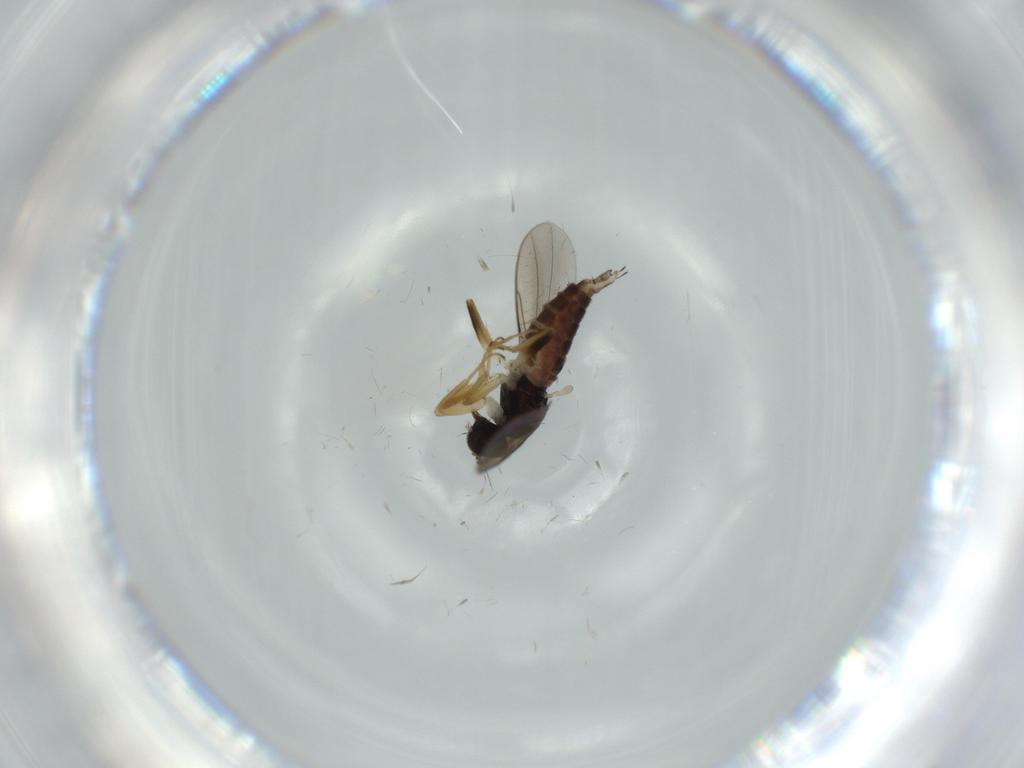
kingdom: Animalia
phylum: Arthropoda
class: Insecta
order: Diptera
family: Hybotidae
